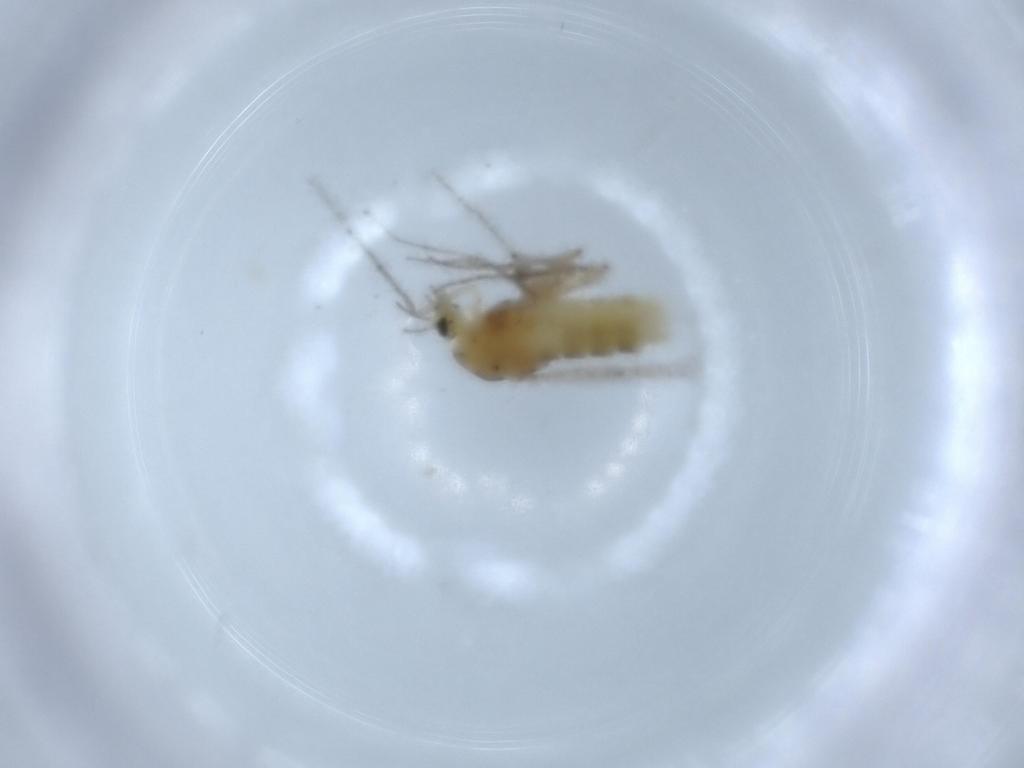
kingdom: Animalia
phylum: Arthropoda
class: Insecta
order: Diptera
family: Chironomidae
